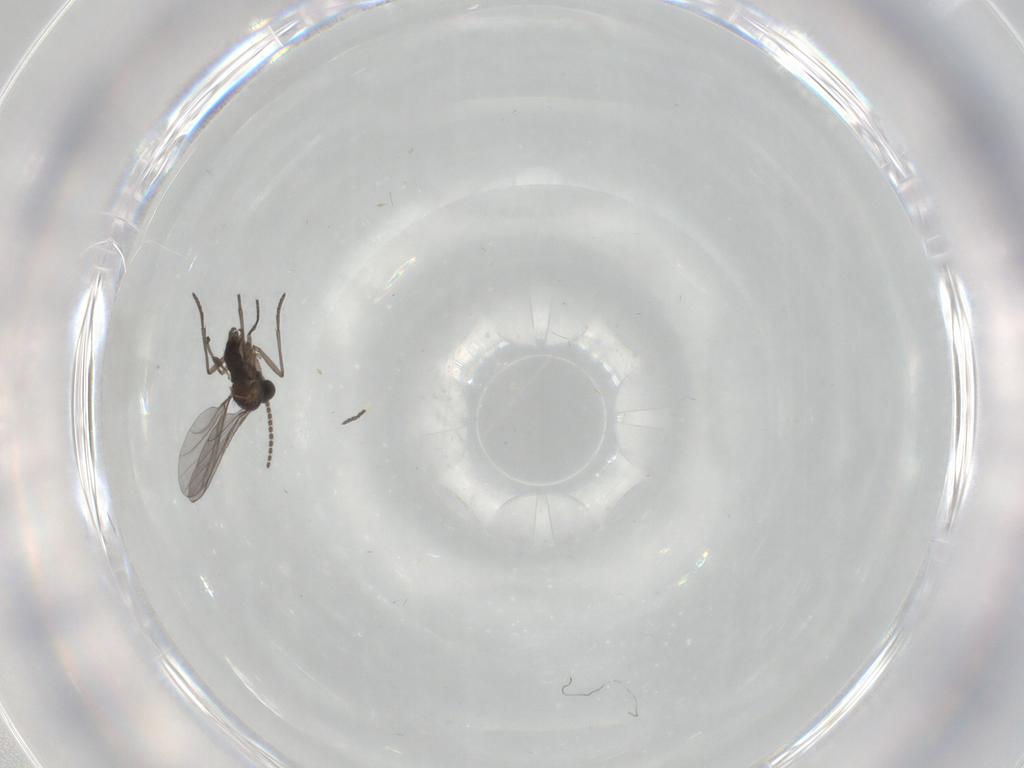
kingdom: Animalia
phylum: Arthropoda
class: Insecta
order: Diptera
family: Sciaridae
